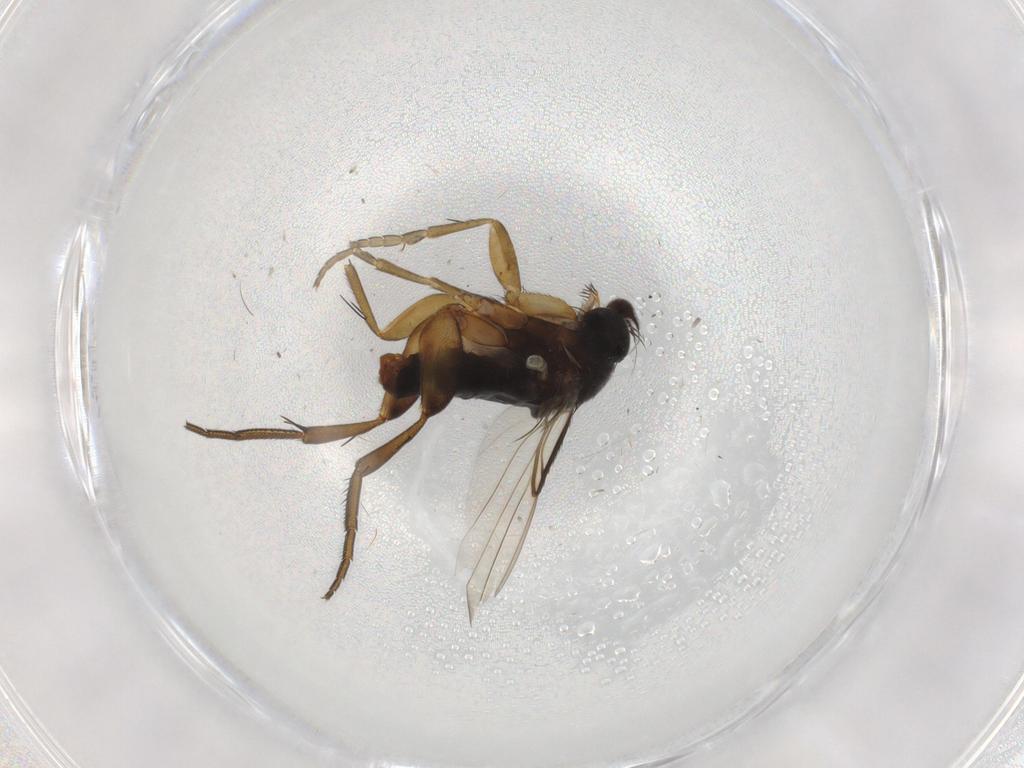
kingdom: Animalia
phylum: Arthropoda
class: Insecta
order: Diptera
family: Phoridae
